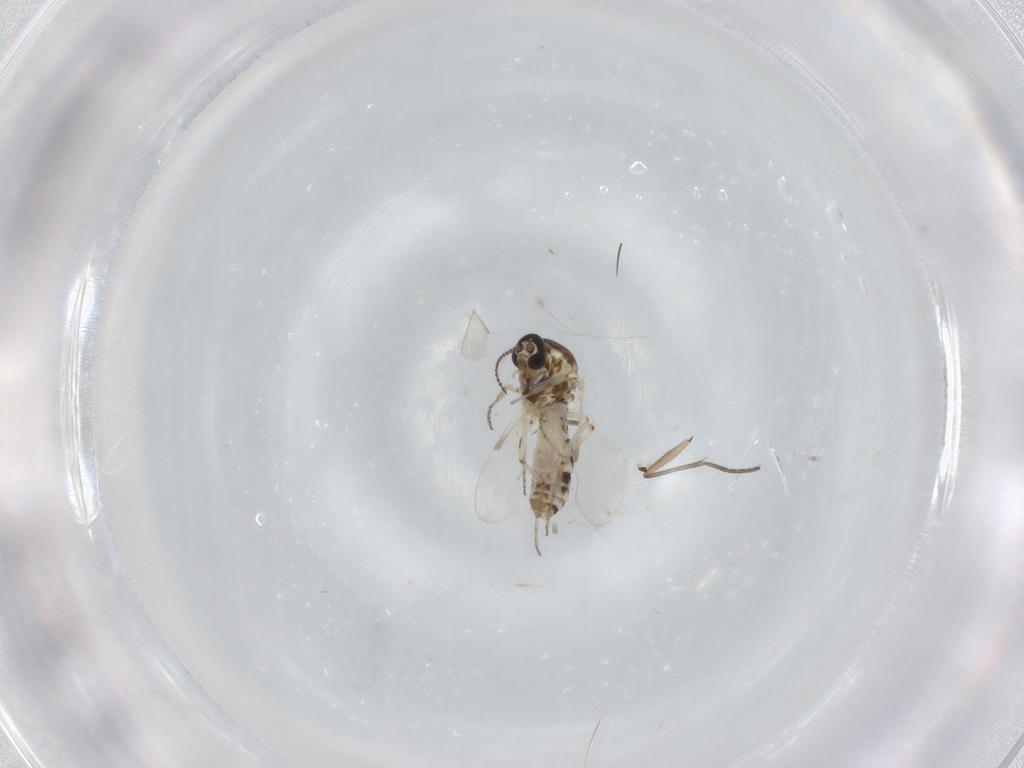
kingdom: Animalia
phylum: Arthropoda
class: Insecta
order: Diptera
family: Ceratopogonidae
